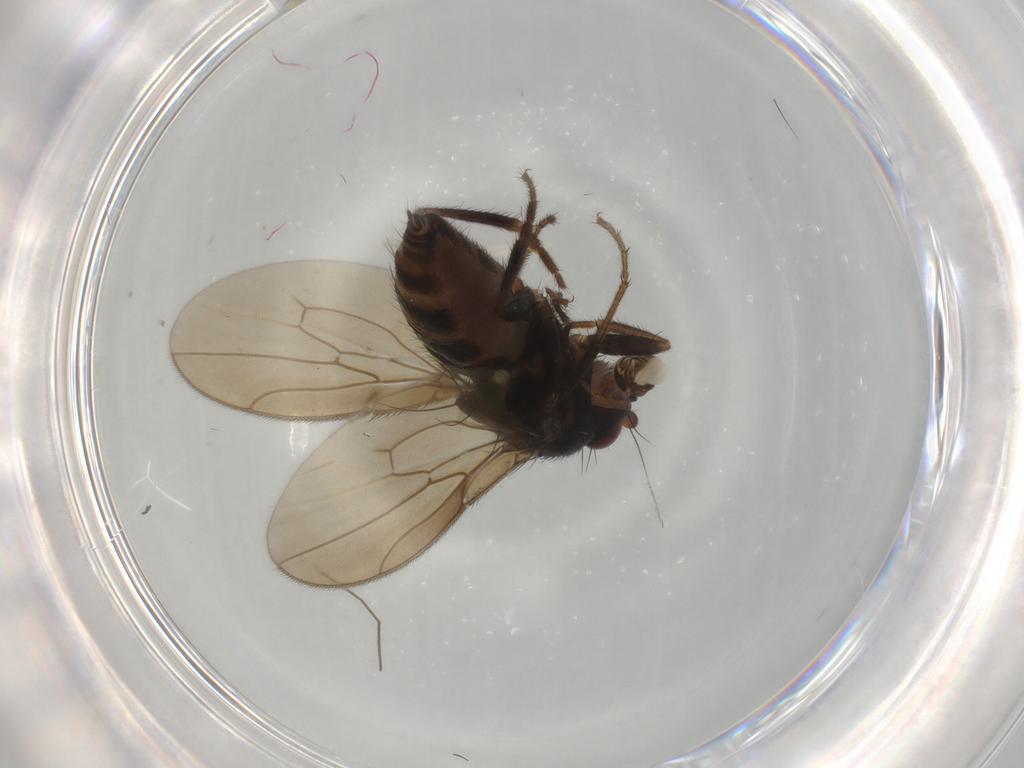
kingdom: Animalia
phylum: Arthropoda
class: Insecta
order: Diptera
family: Sphaeroceridae
